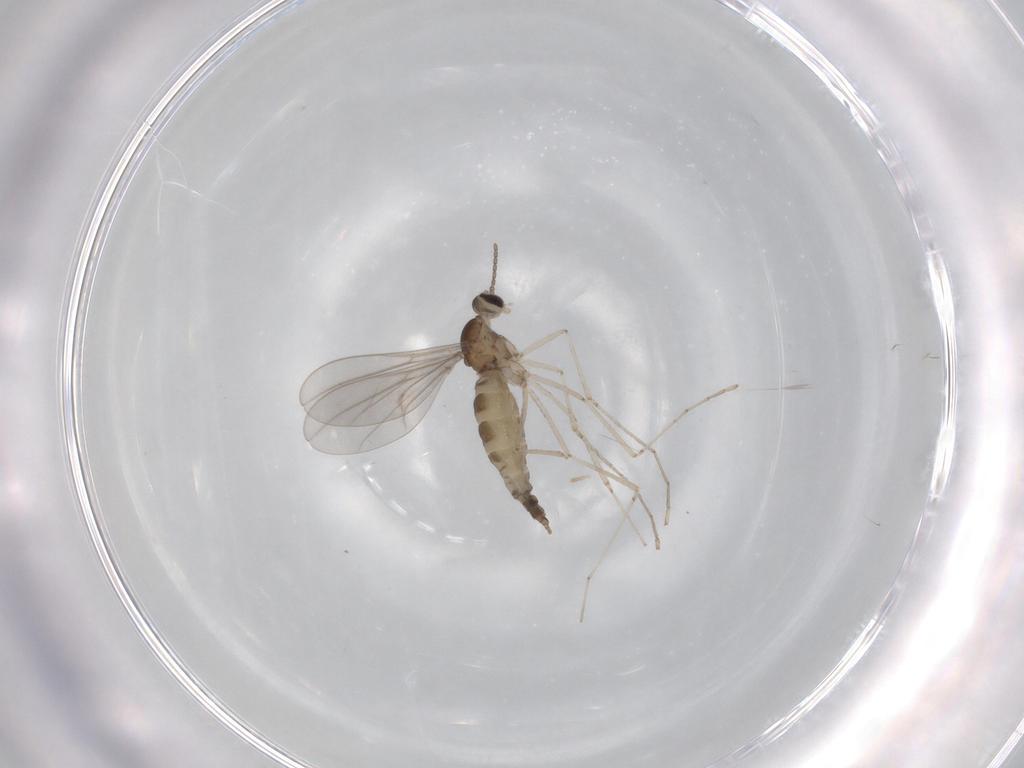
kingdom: Animalia
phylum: Arthropoda
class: Insecta
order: Diptera
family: Cecidomyiidae
